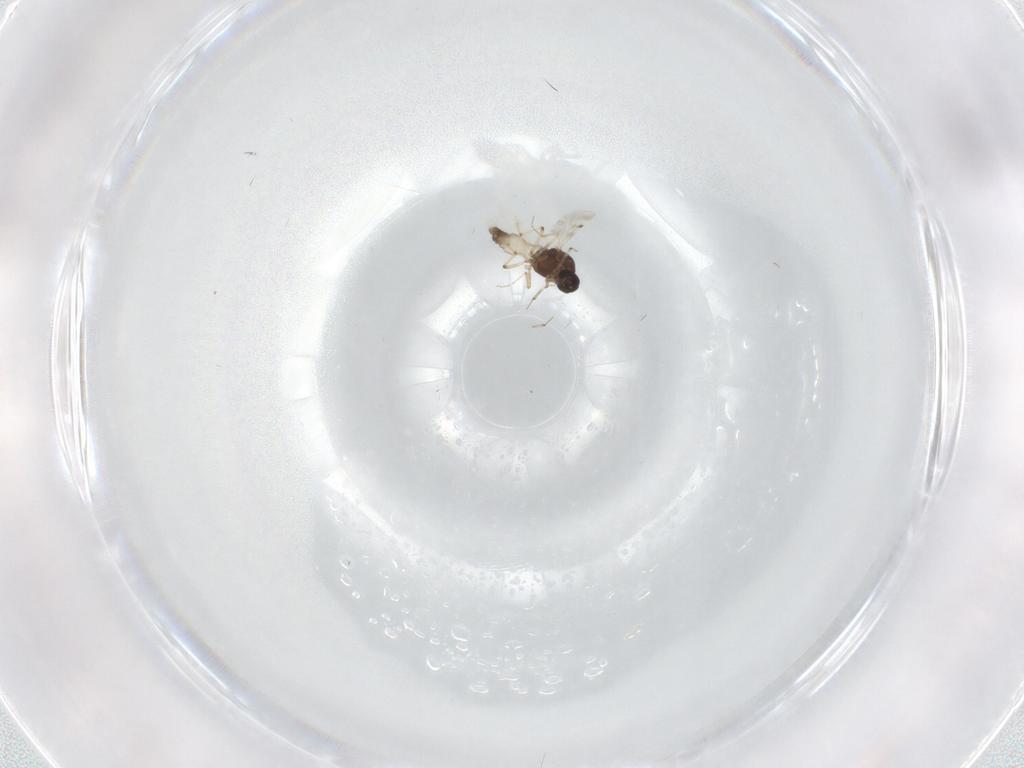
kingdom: Animalia
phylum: Arthropoda
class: Insecta
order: Diptera
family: Chironomidae
